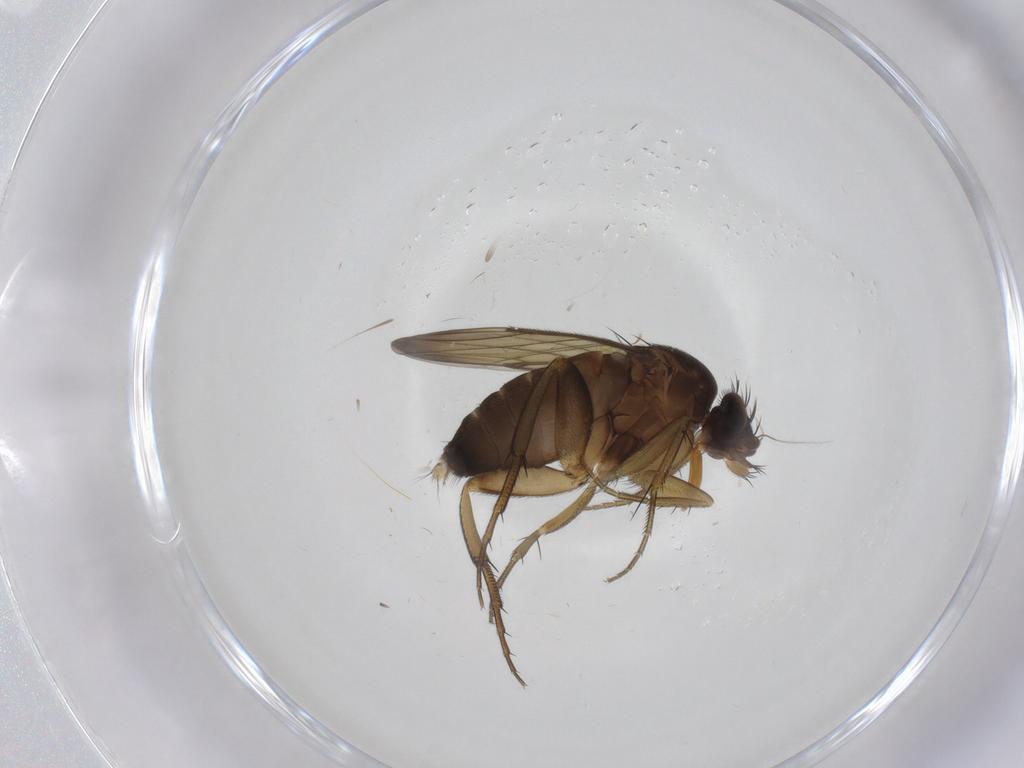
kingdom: Animalia
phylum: Arthropoda
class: Insecta
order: Diptera
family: Phoridae
